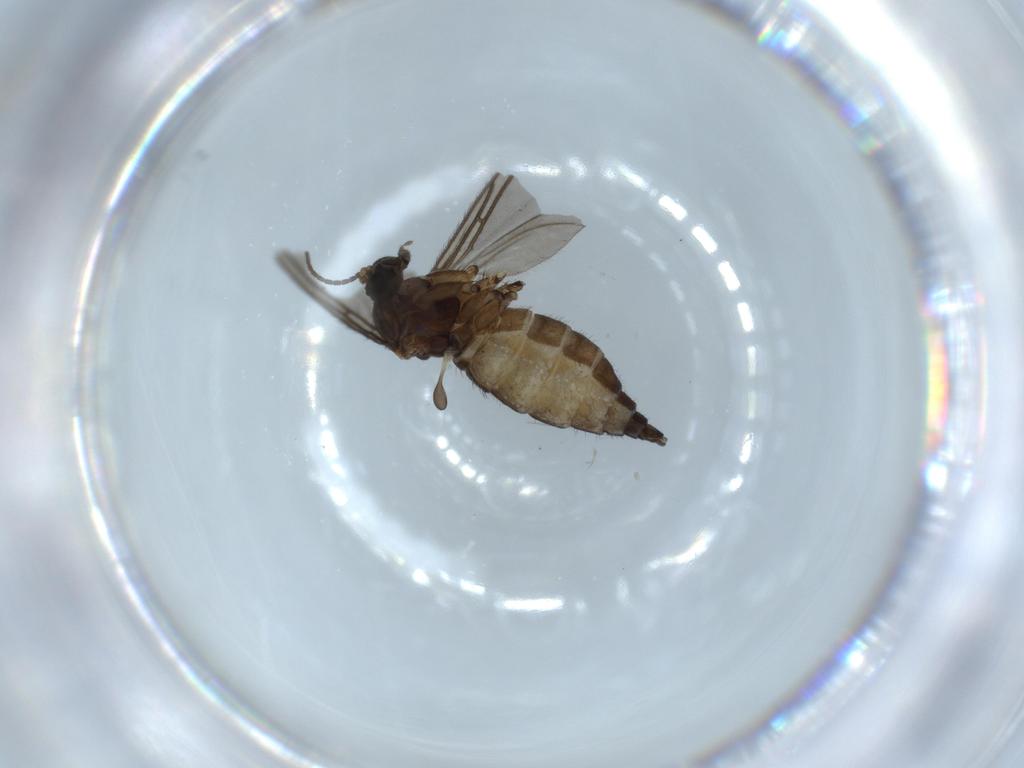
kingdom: Animalia
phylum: Arthropoda
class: Insecta
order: Diptera
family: Sciaridae
